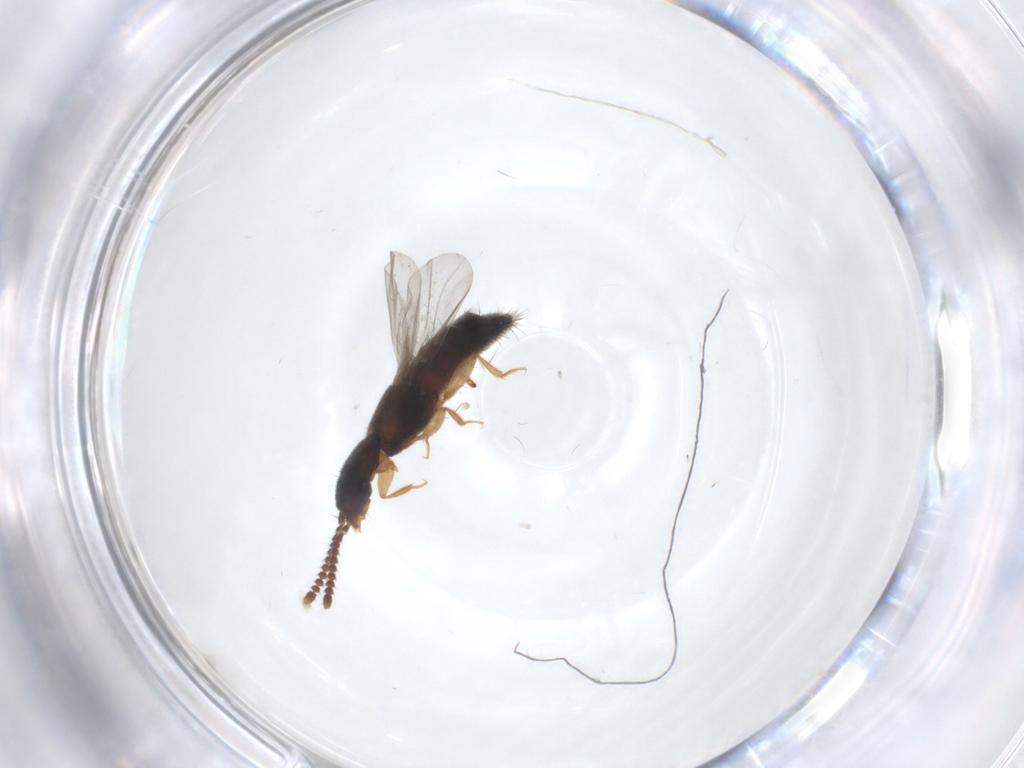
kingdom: Animalia
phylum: Arthropoda
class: Insecta
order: Coleoptera
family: Staphylinidae
